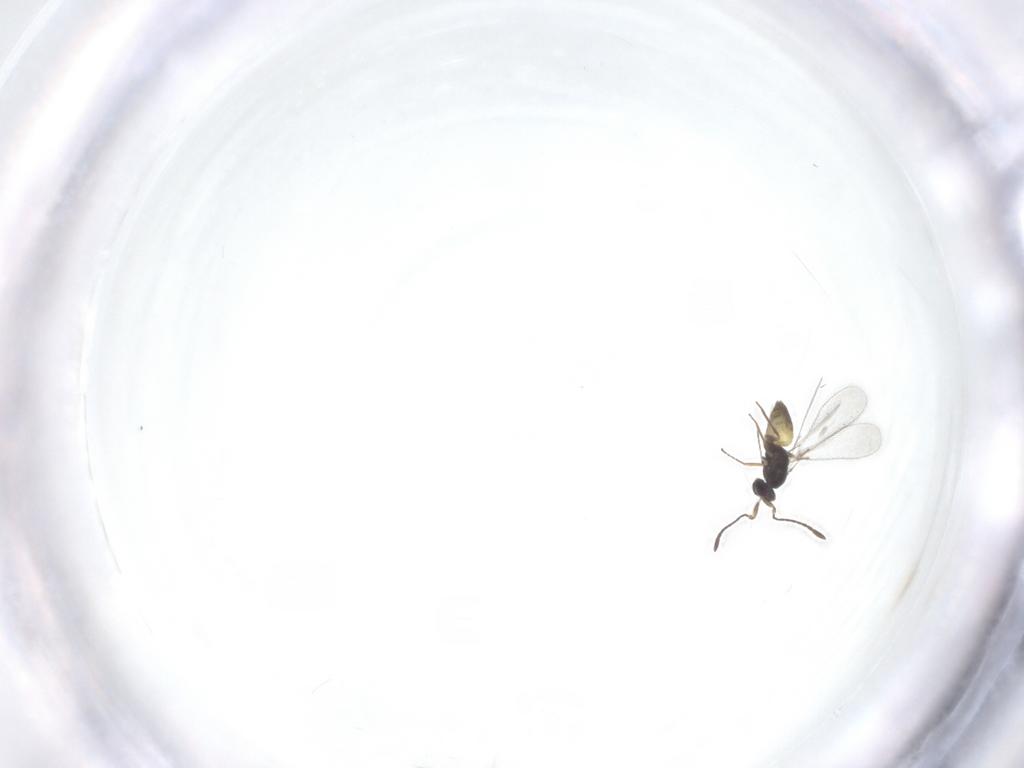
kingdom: Animalia
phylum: Arthropoda
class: Insecta
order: Hymenoptera
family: Mymaridae
